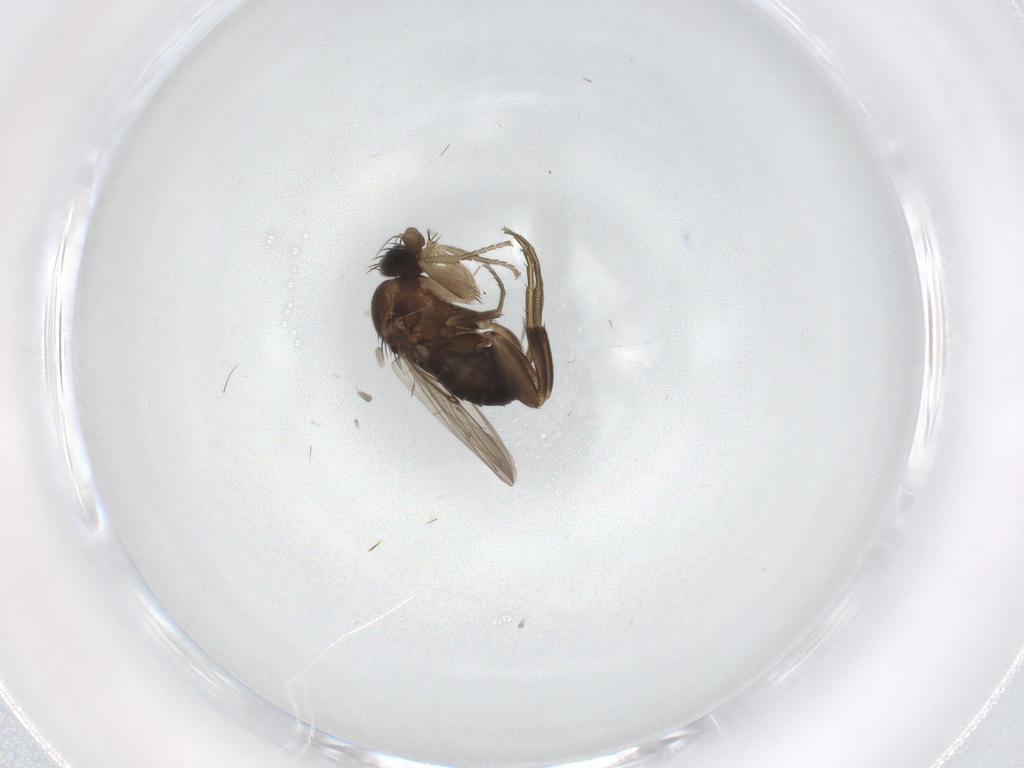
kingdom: Animalia
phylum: Arthropoda
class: Insecta
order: Diptera
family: Phoridae
